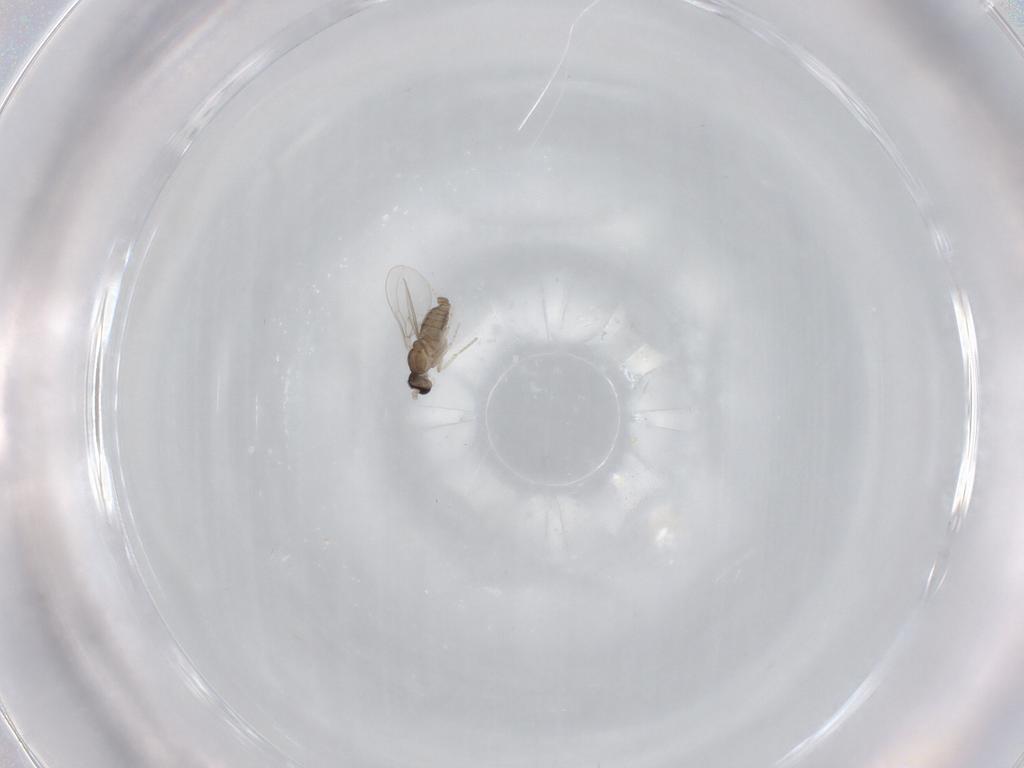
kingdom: Animalia
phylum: Arthropoda
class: Insecta
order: Diptera
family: Cecidomyiidae
